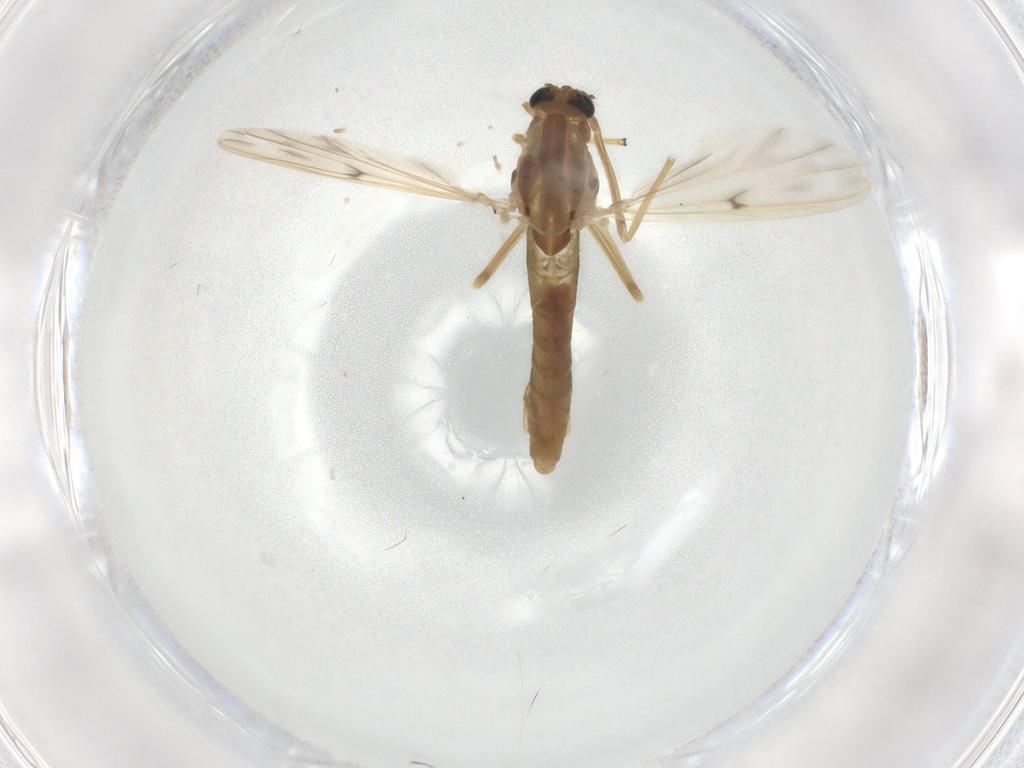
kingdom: Animalia
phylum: Arthropoda
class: Insecta
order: Diptera
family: Chironomidae
